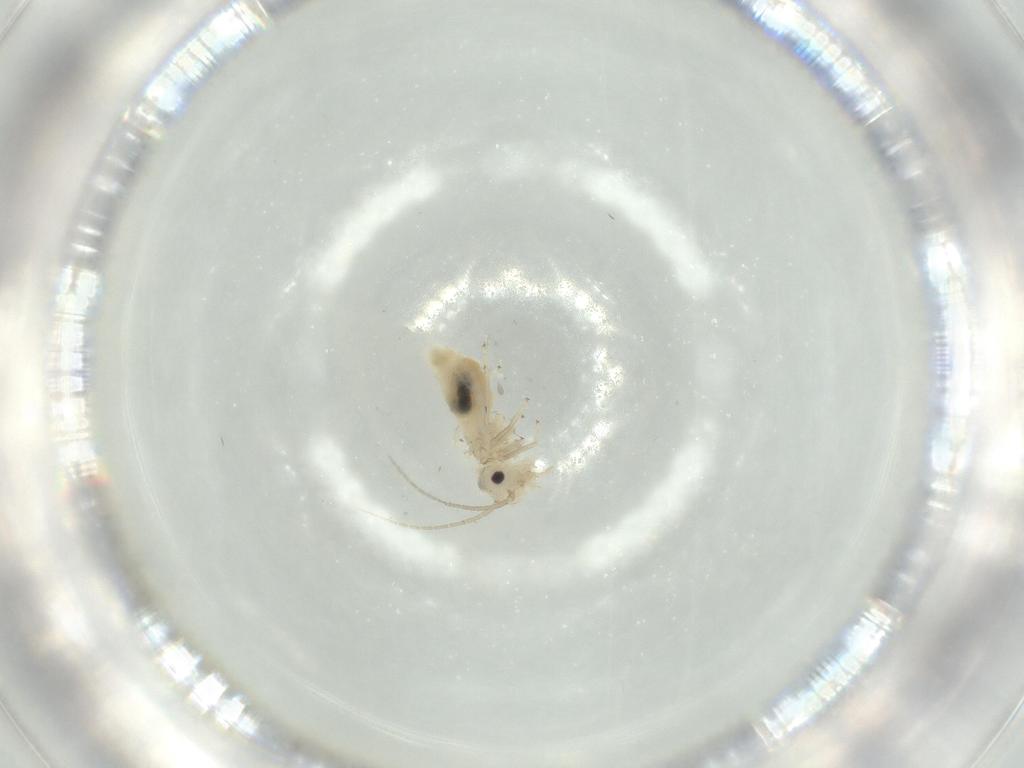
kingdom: Animalia
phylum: Arthropoda
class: Insecta
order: Psocodea
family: Caeciliusidae
